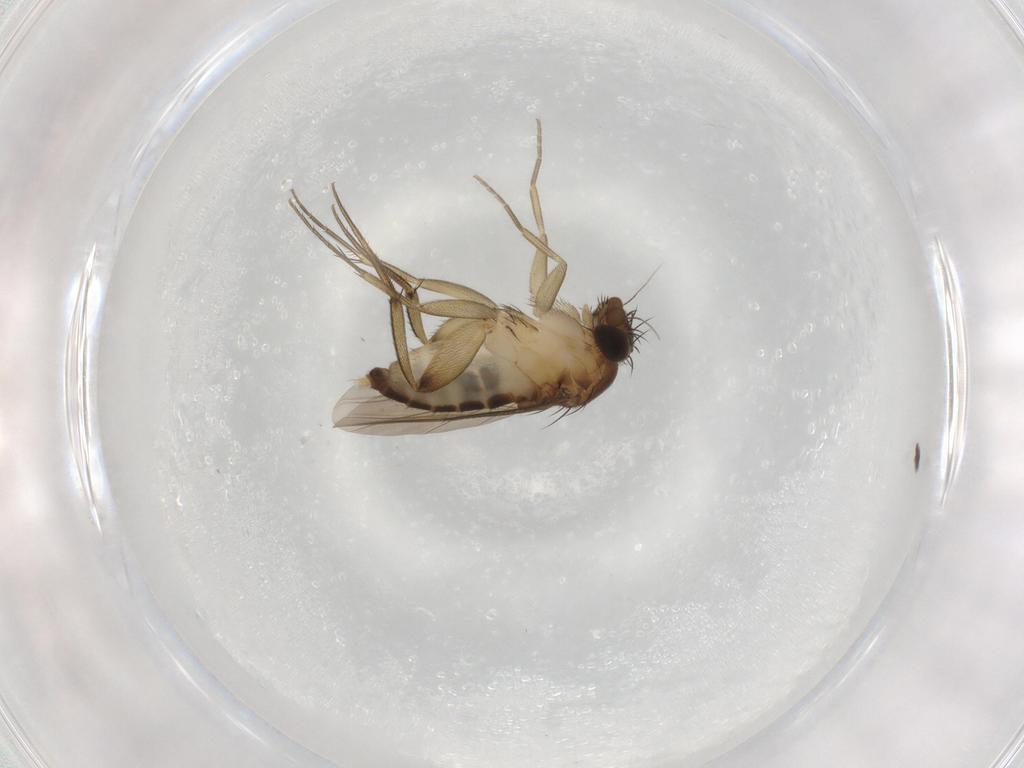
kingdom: Animalia
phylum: Arthropoda
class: Insecta
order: Diptera
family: Phoridae
